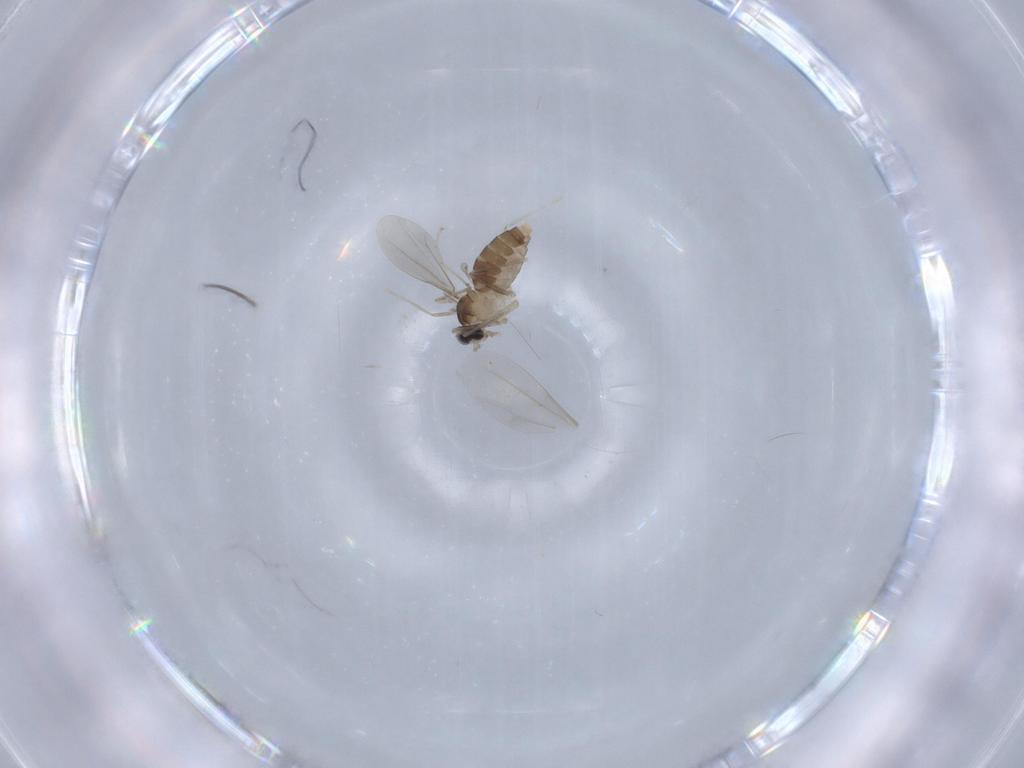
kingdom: Animalia
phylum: Arthropoda
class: Insecta
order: Diptera
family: Cecidomyiidae
